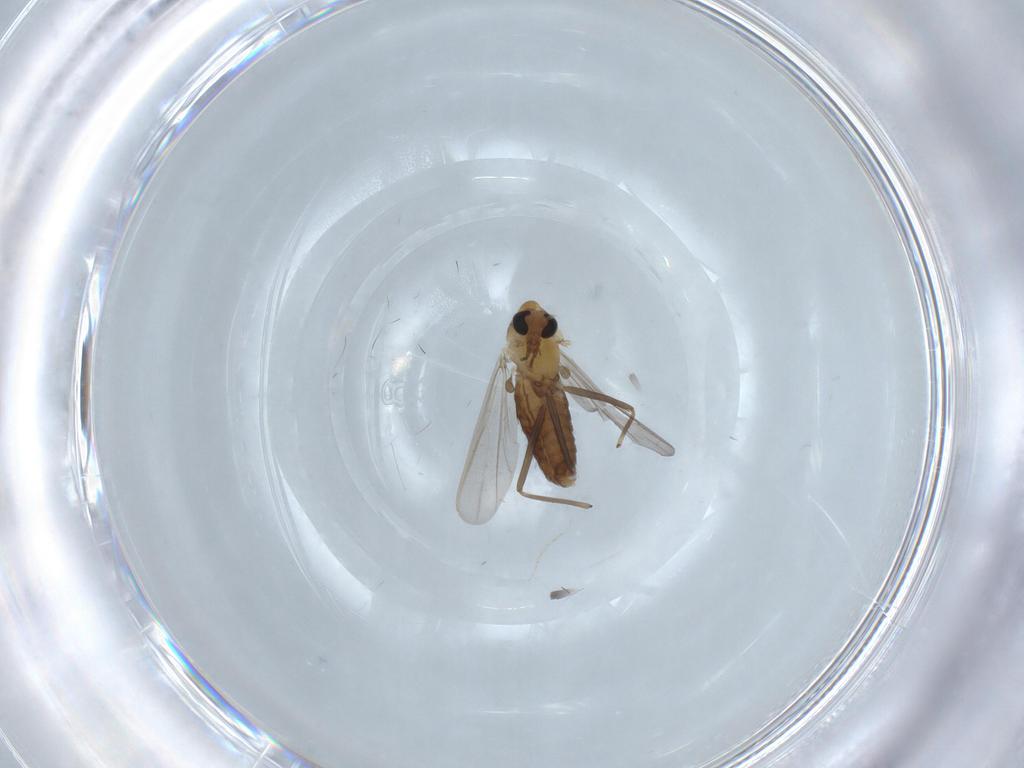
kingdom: Animalia
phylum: Arthropoda
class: Insecta
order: Diptera
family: Chironomidae
